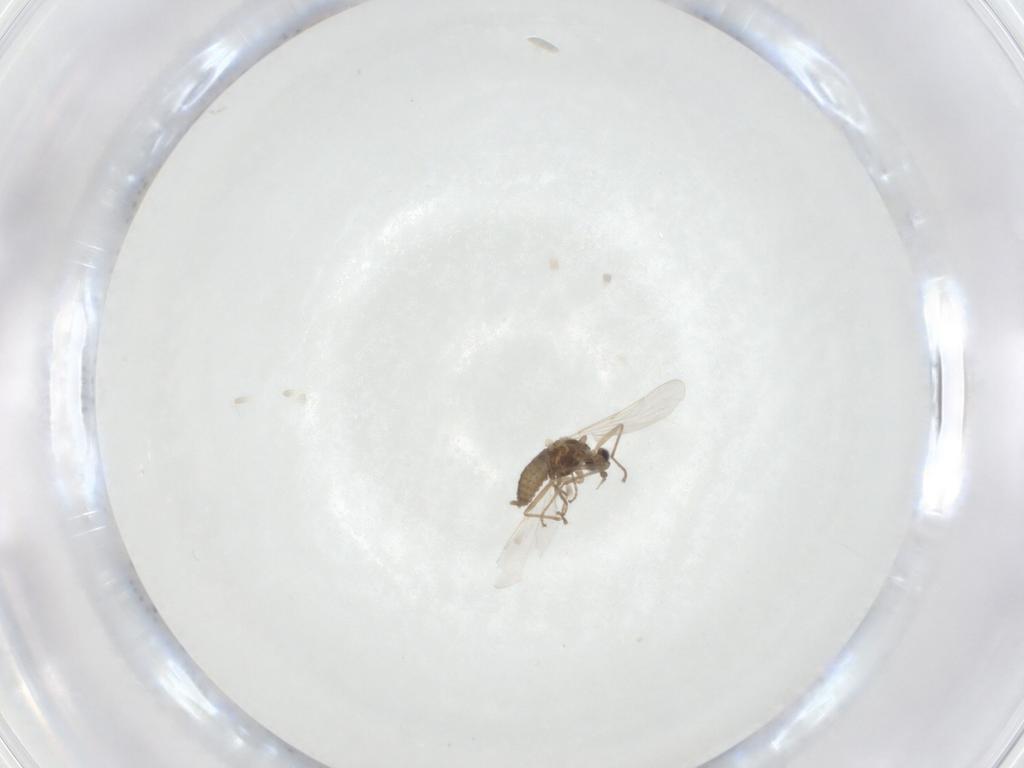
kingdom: Animalia
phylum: Arthropoda
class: Insecta
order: Diptera
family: Cecidomyiidae
